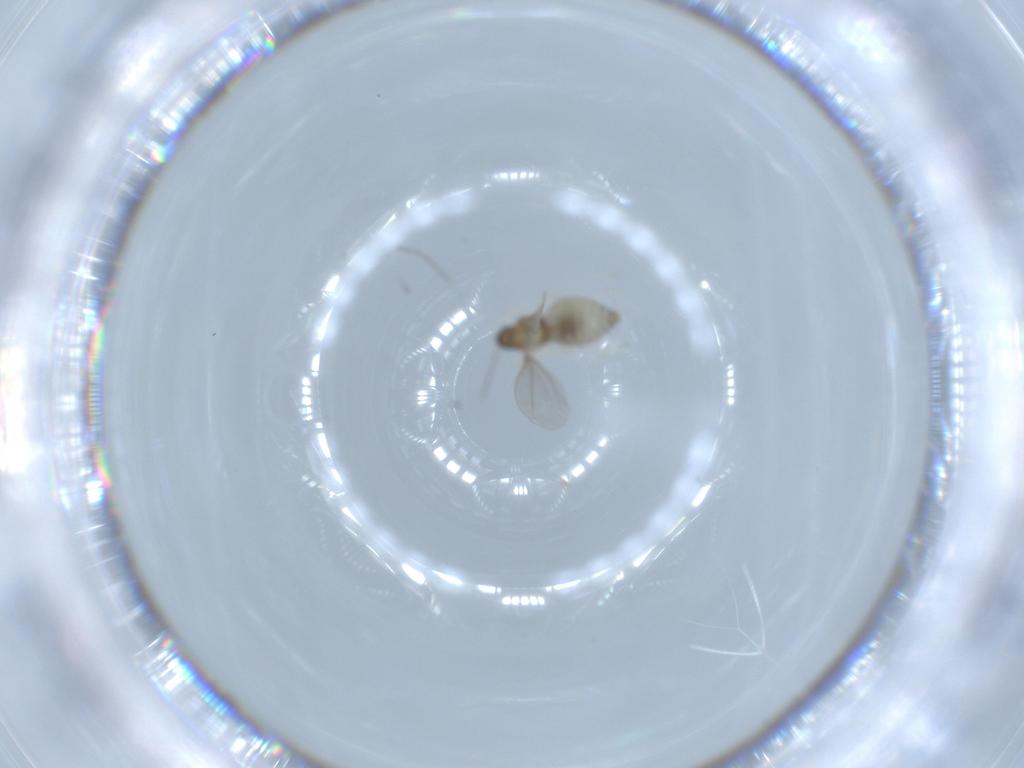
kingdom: Animalia
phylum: Arthropoda
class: Insecta
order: Diptera
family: Cecidomyiidae
